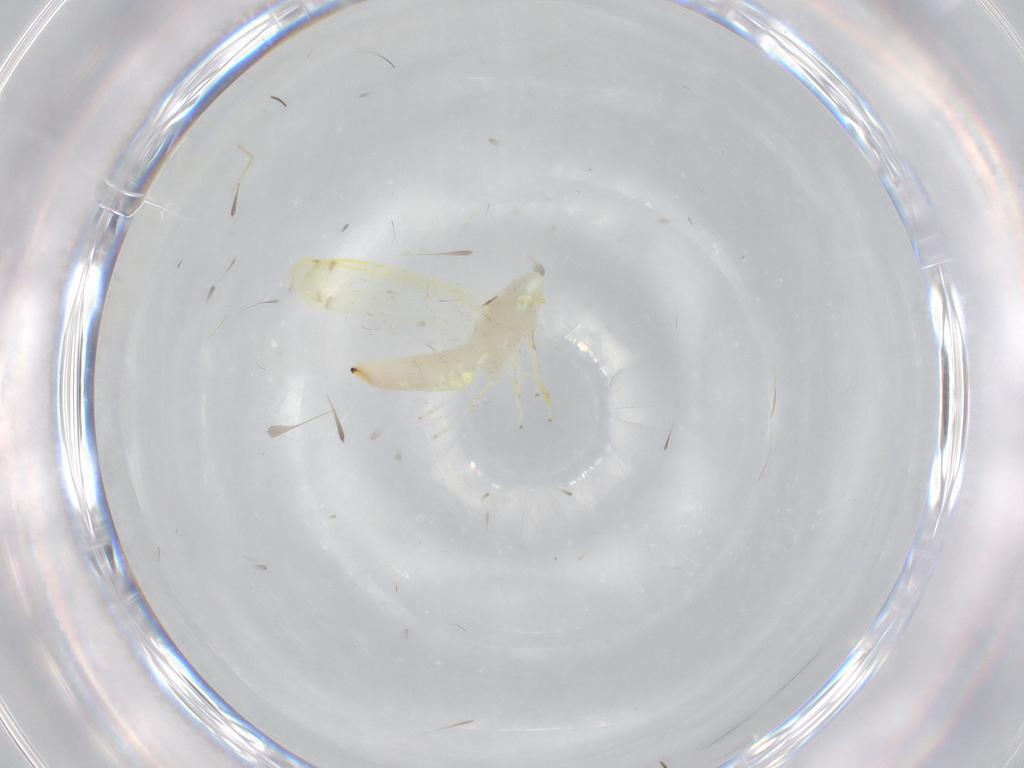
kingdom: Animalia
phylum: Arthropoda
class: Insecta
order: Hemiptera
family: Cicadellidae
